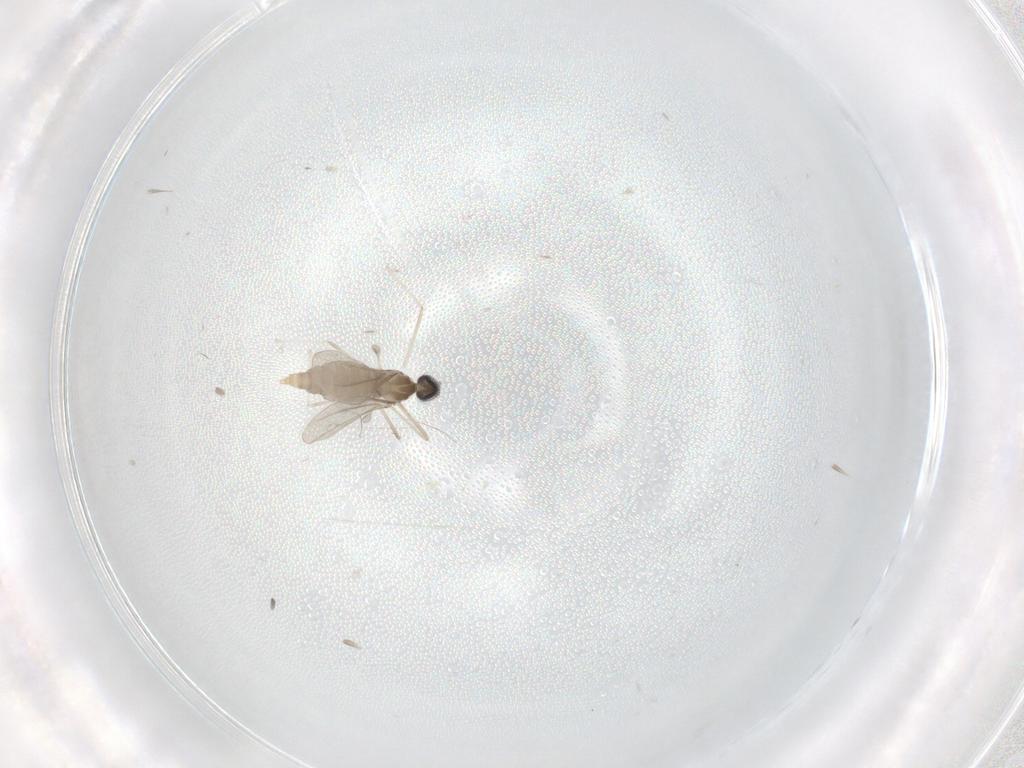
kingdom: Animalia
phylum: Arthropoda
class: Insecta
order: Diptera
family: Cecidomyiidae
